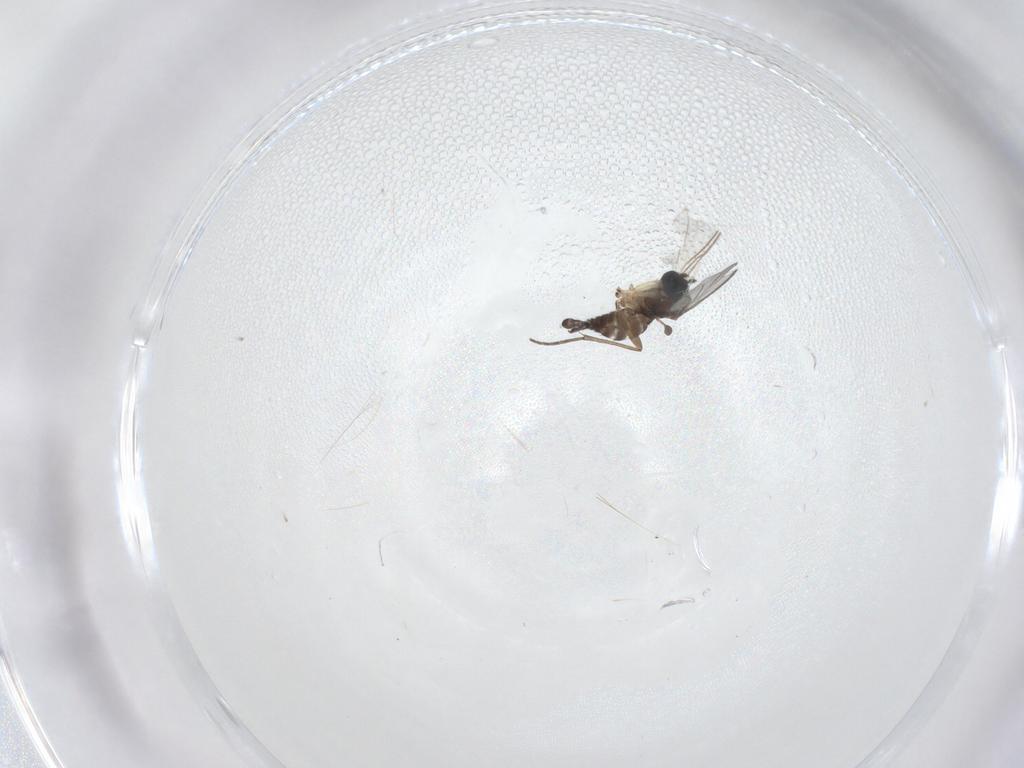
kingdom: Animalia
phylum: Arthropoda
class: Insecta
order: Diptera
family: Sciaridae
